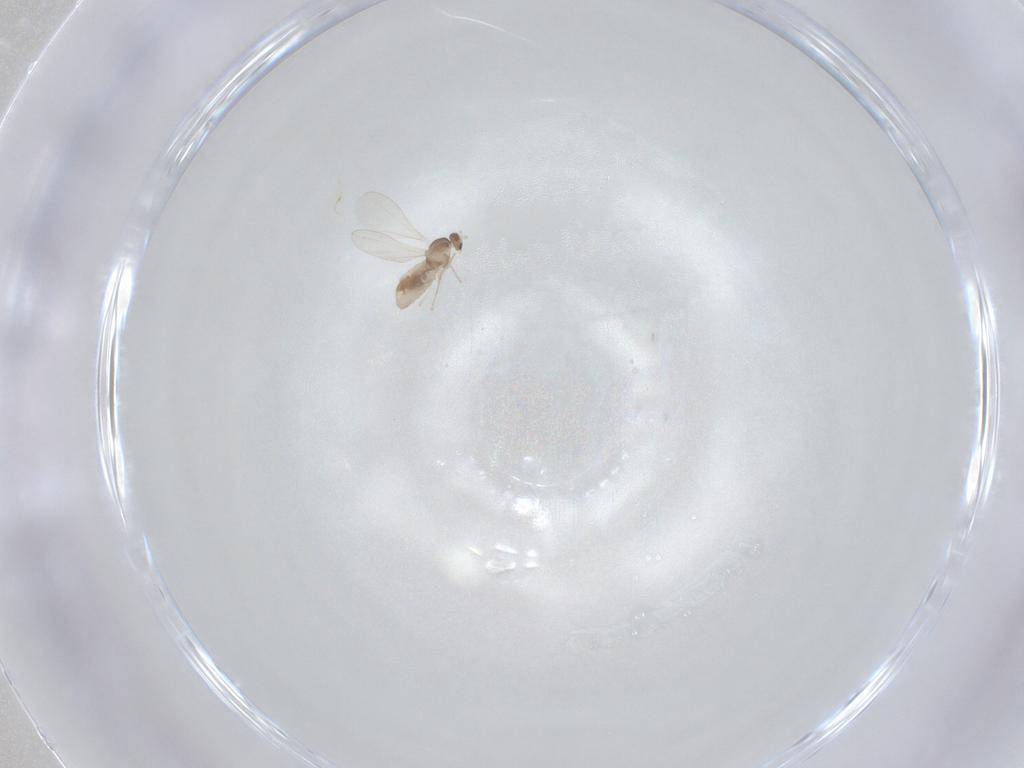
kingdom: Animalia
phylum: Arthropoda
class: Insecta
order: Diptera
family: Cecidomyiidae
